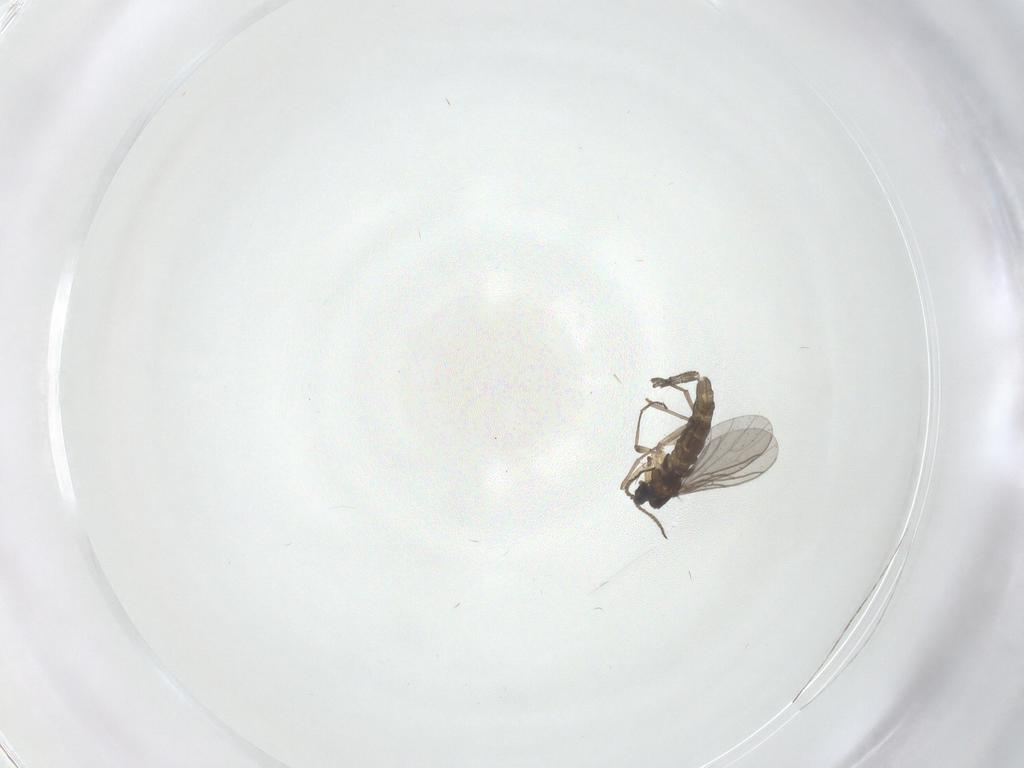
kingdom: Animalia
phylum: Arthropoda
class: Insecta
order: Diptera
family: Sciaridae
